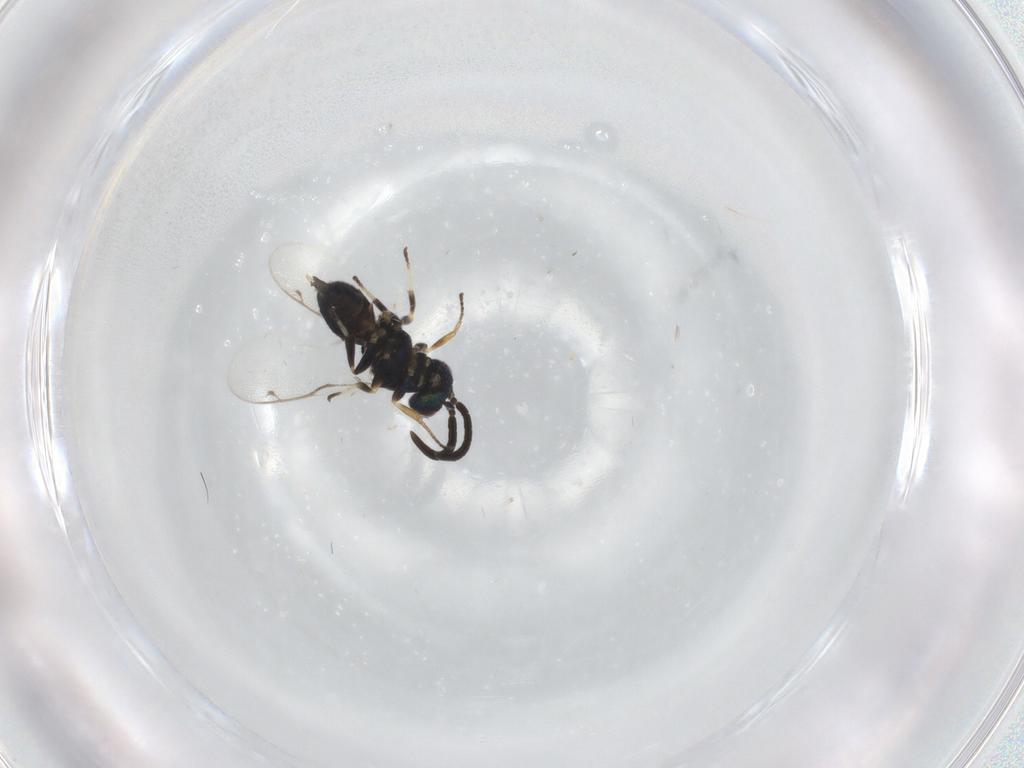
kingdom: Animalia
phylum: Arthropoda
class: Insecta
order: Hymenoptera
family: Eupelmidae
